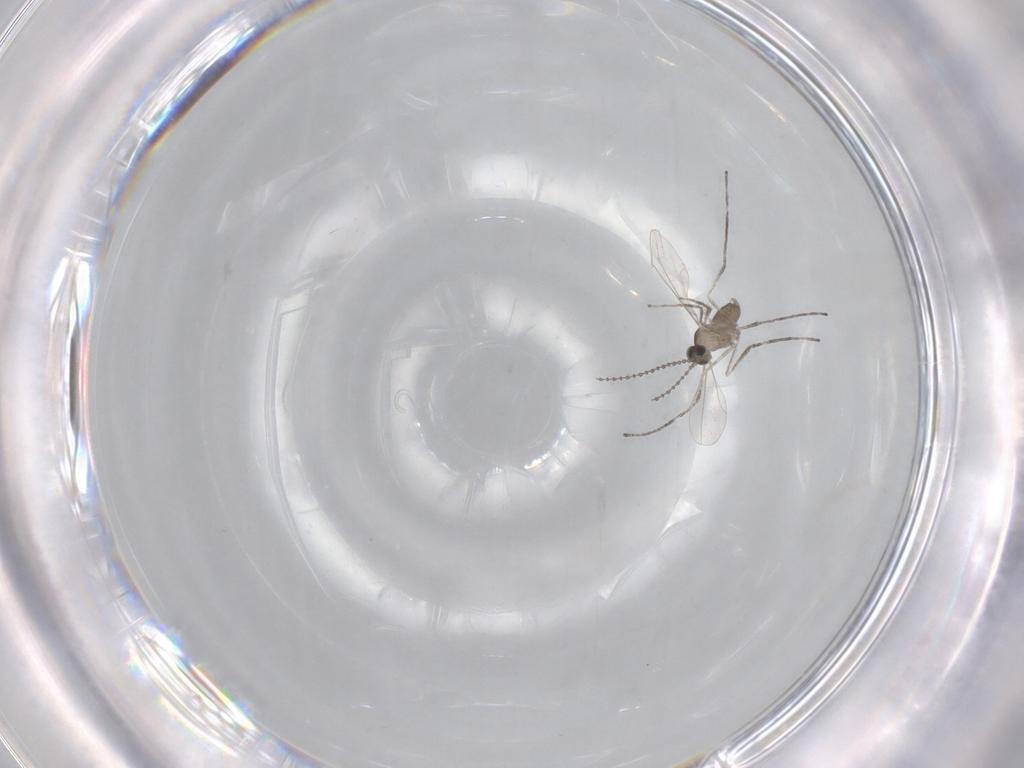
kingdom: Animalia
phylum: Arthropoda
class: Insecta
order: Diptera
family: Cecidomyiidae
